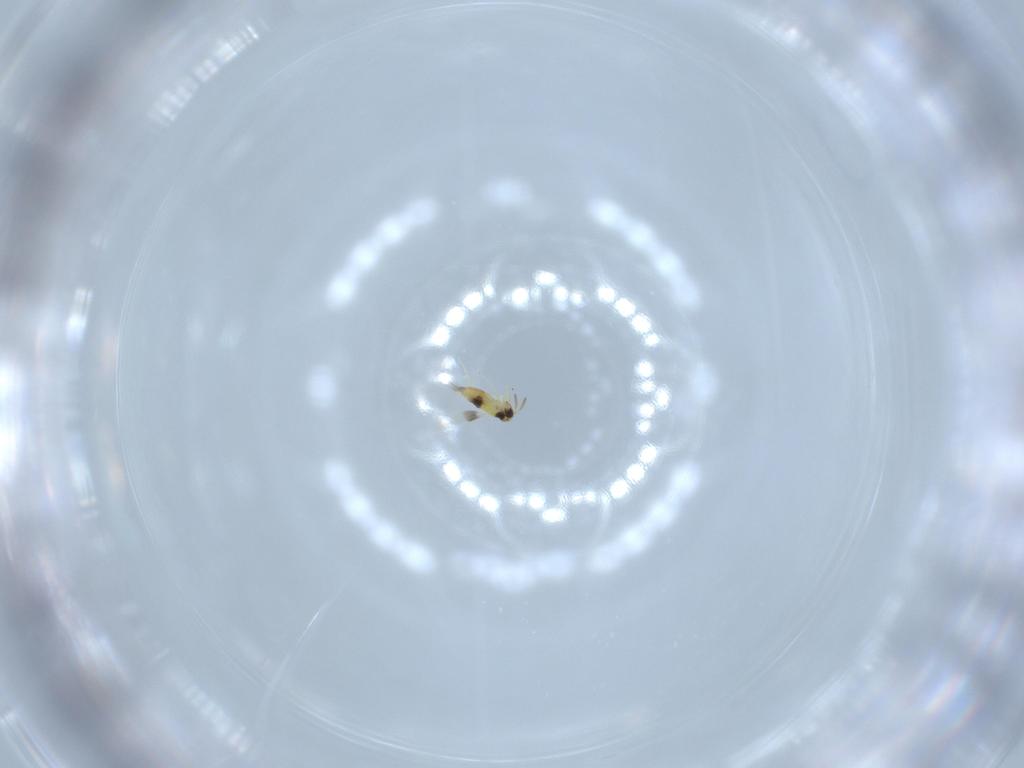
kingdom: Animalia
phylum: Arthropoda
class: Insecta
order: Hymenoptera
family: Signiphoridae
